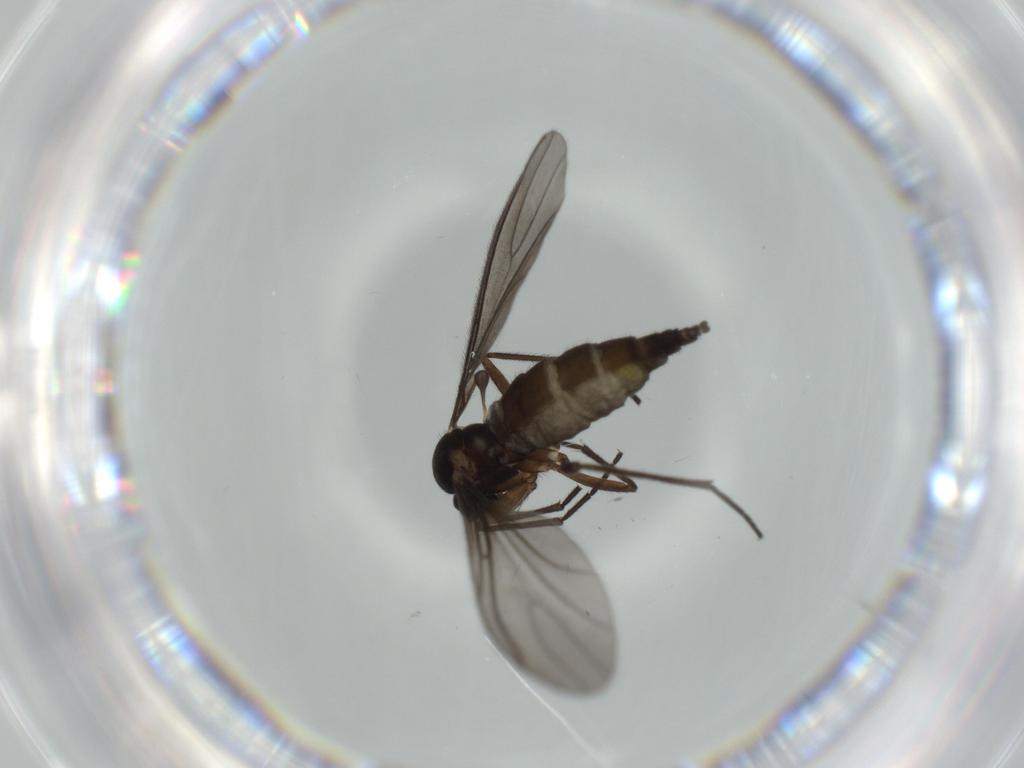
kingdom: Animalia
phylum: Arthropoda
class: Insecta
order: Diptera
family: Sciaridae
